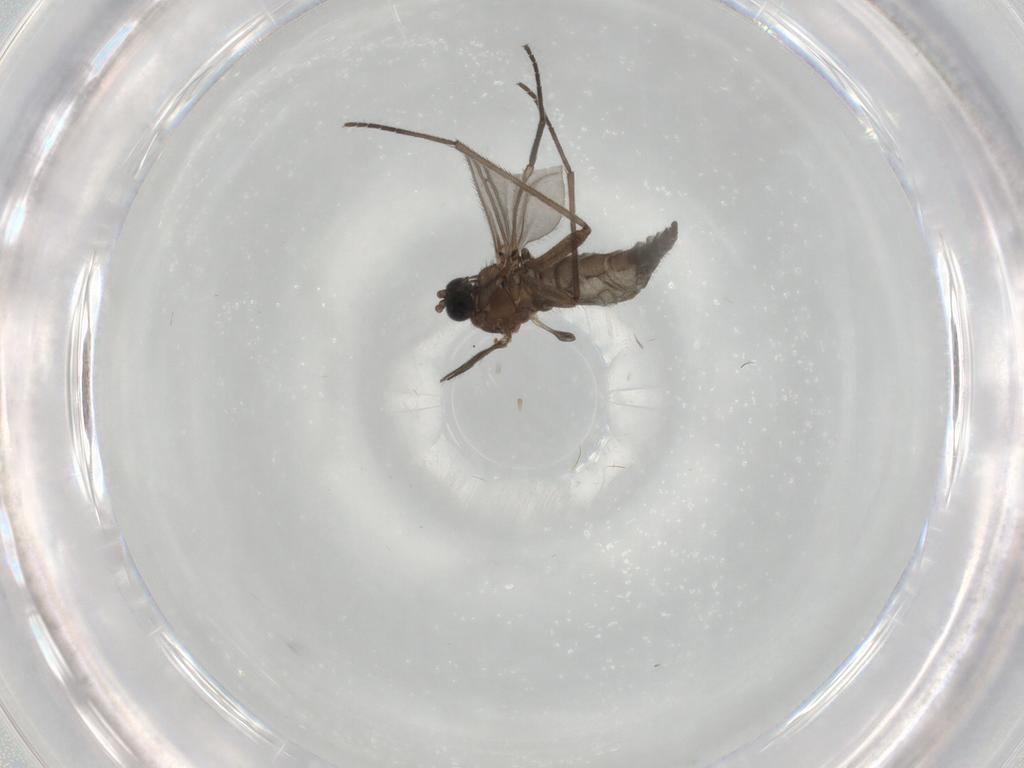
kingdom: Animalia
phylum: Arthropoda
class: Insecta
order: Diptera
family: Sciaridae
